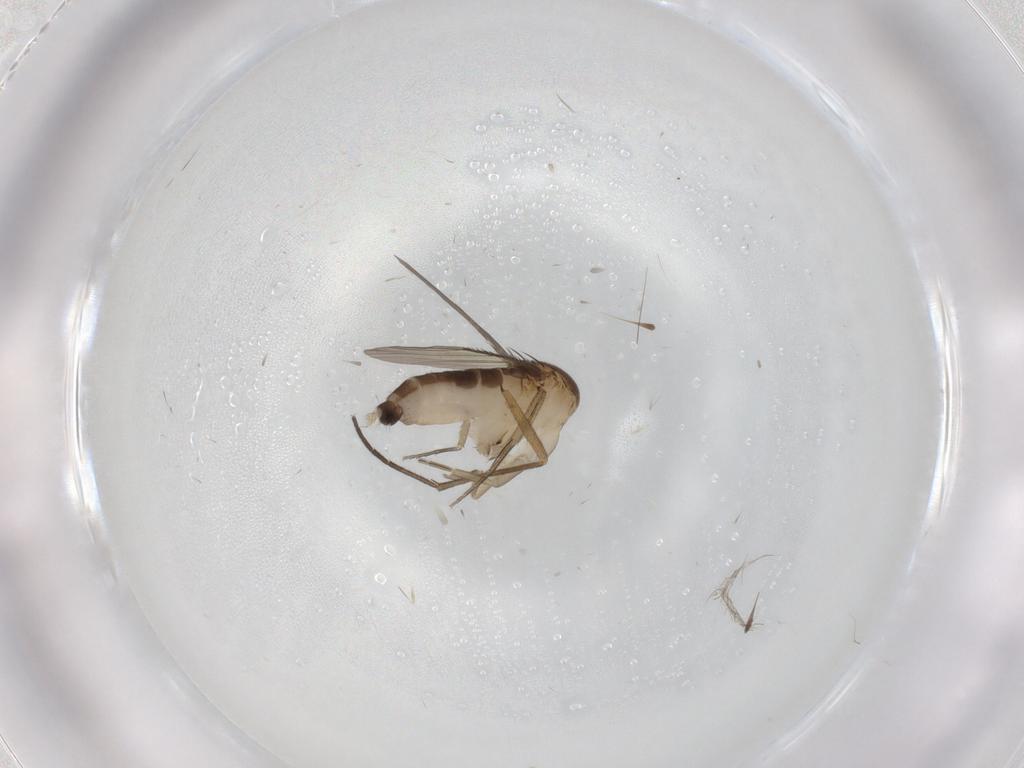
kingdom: Animalia
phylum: Arthropoda
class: Insecta
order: Diptera
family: Phoridae
